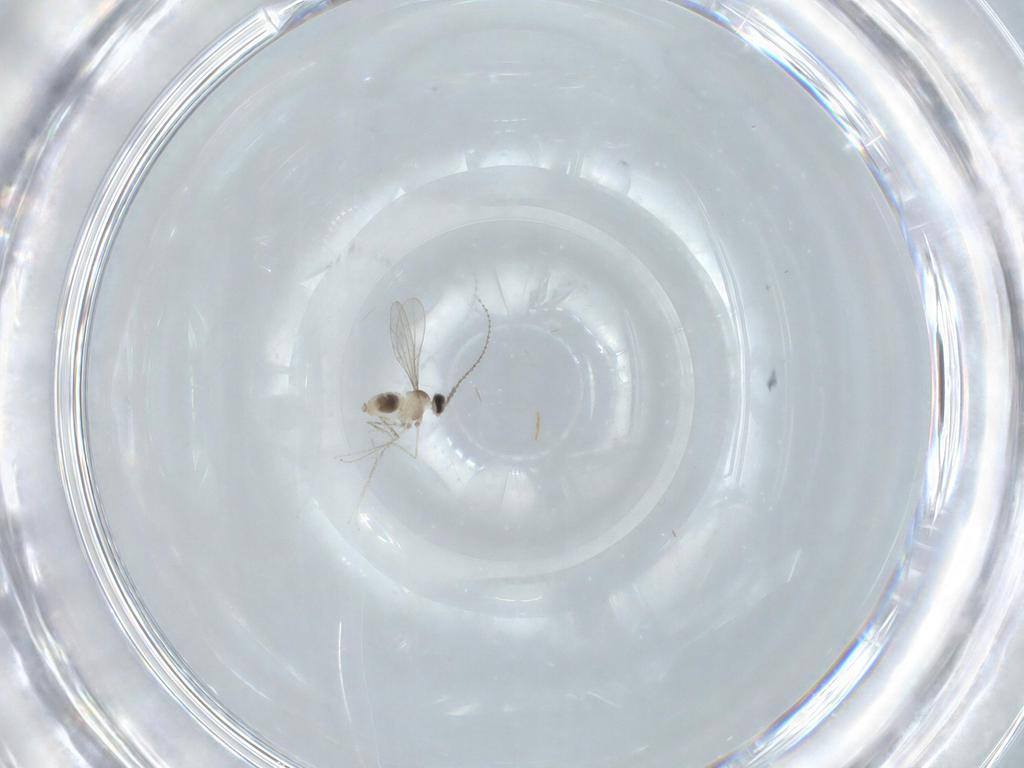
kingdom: Animalia
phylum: Arthropoda
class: Insecta
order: Diptera
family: Cecidomyiidae
